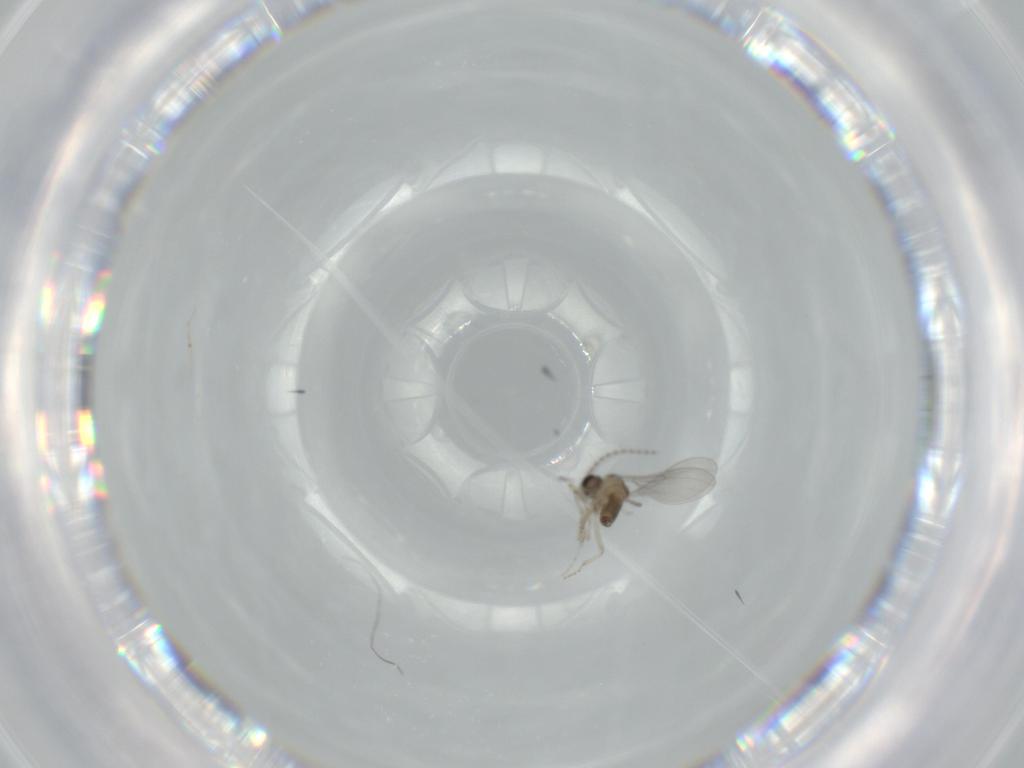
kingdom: Animalia
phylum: Arthropoda
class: Insecta
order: Diptera
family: Cecidomyiidae
